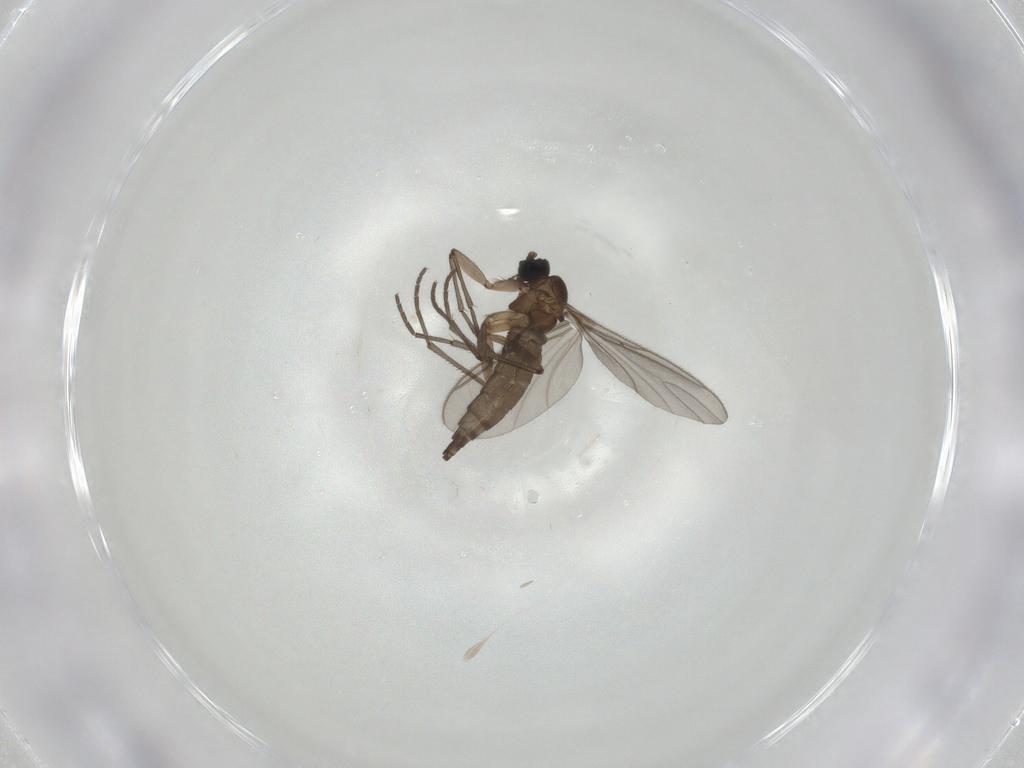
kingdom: Animalia
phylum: Arthropoda
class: Insecta
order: Diptera
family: Sciaridae
